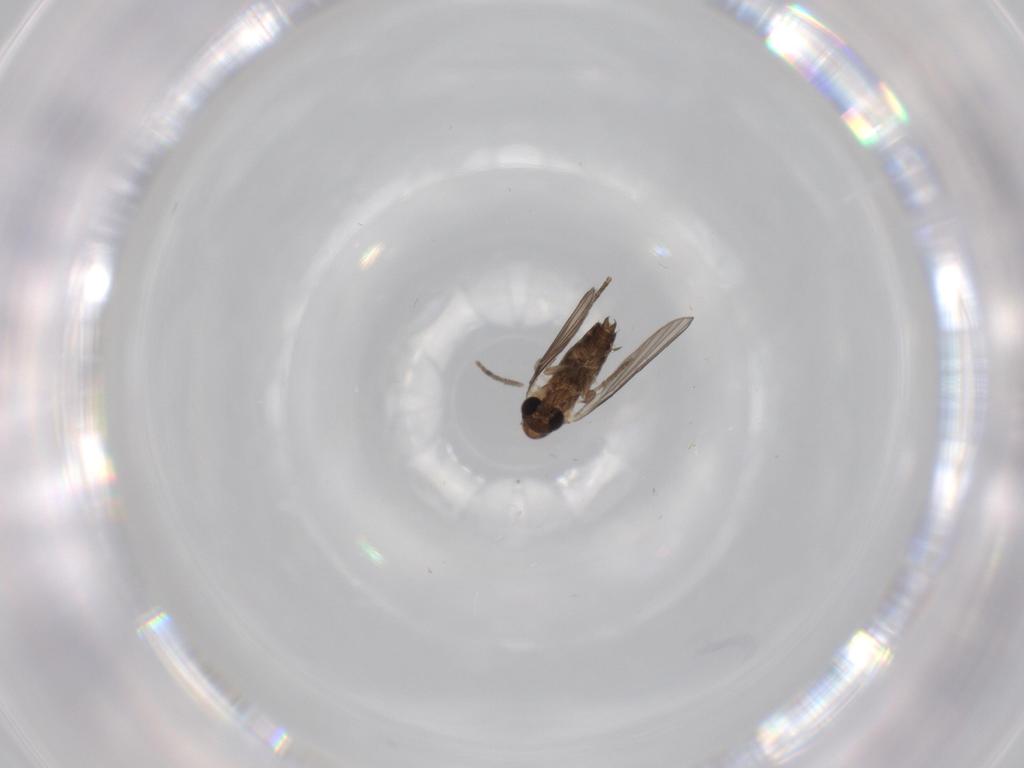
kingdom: Animalia
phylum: Arthropoda
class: Insecta
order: Diptera
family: Psychodidae
